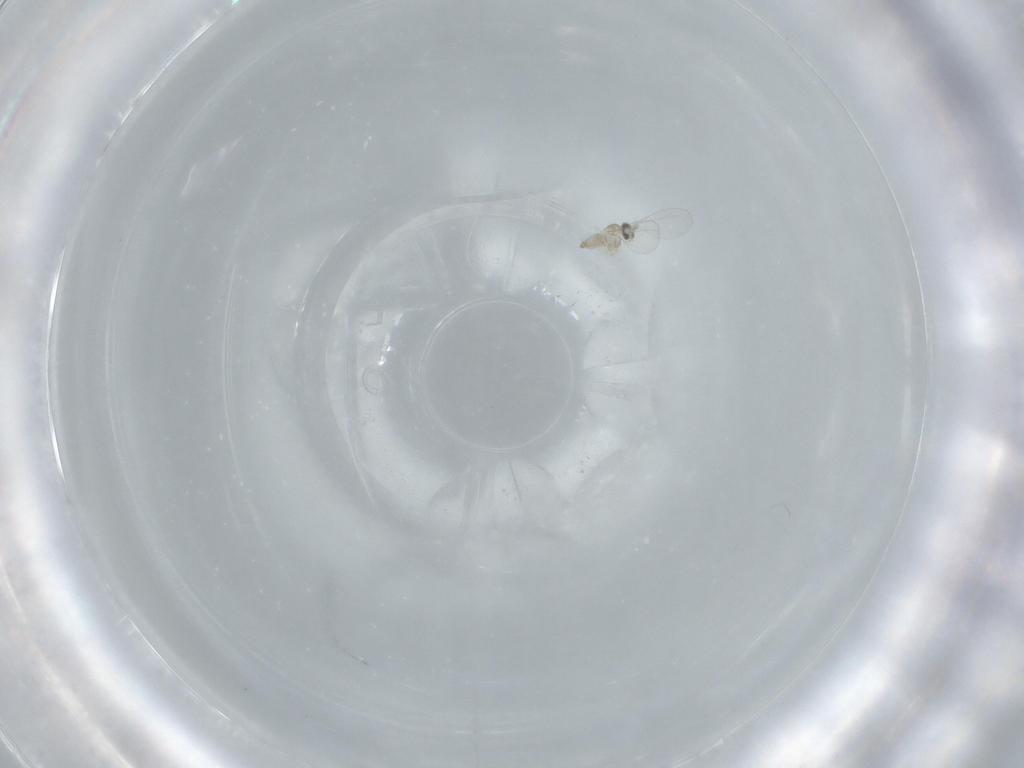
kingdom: Animalia
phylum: Arthropoda
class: Insecta
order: Diptera
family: Cecidomyiidae
